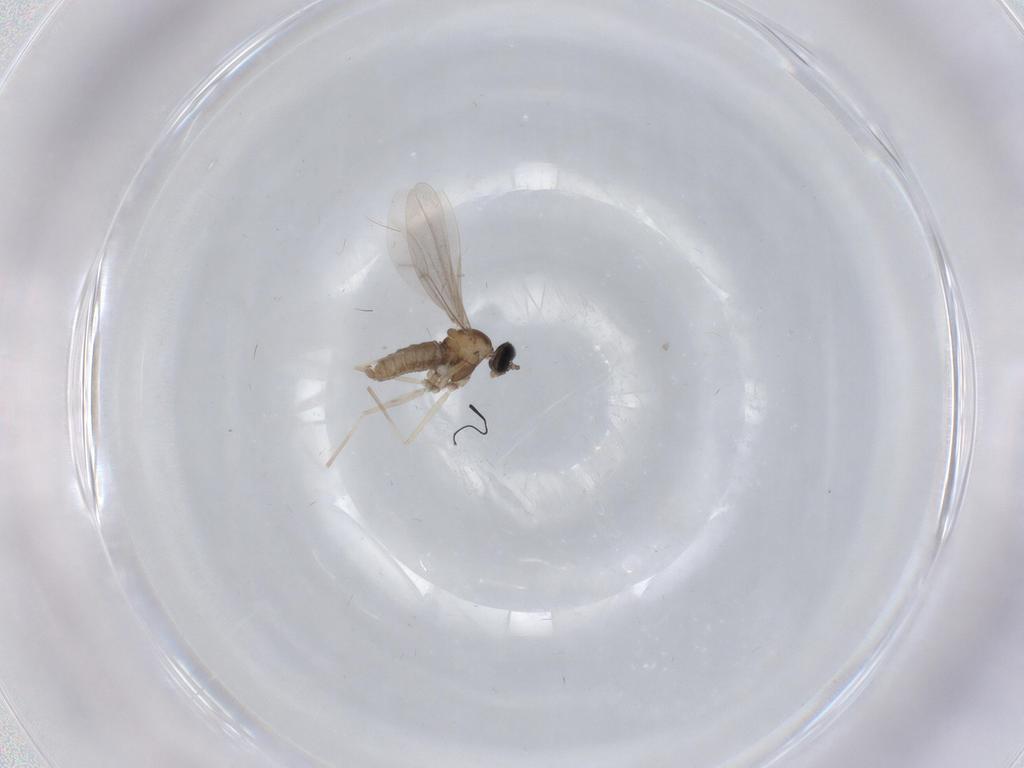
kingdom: Animalia
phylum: Arthropoda
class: Insecta
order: Diptera
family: Cecidomyiidae
